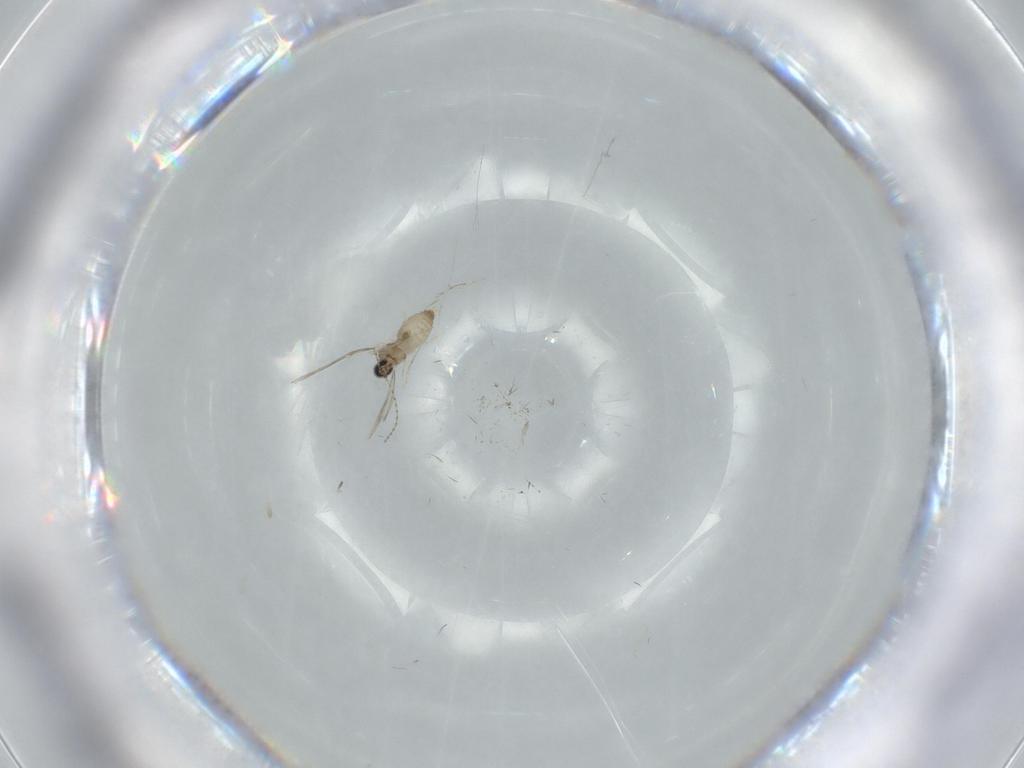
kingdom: Animalia
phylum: Arthropoda
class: Insecta
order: Diptera
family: Cecidomyiidae
